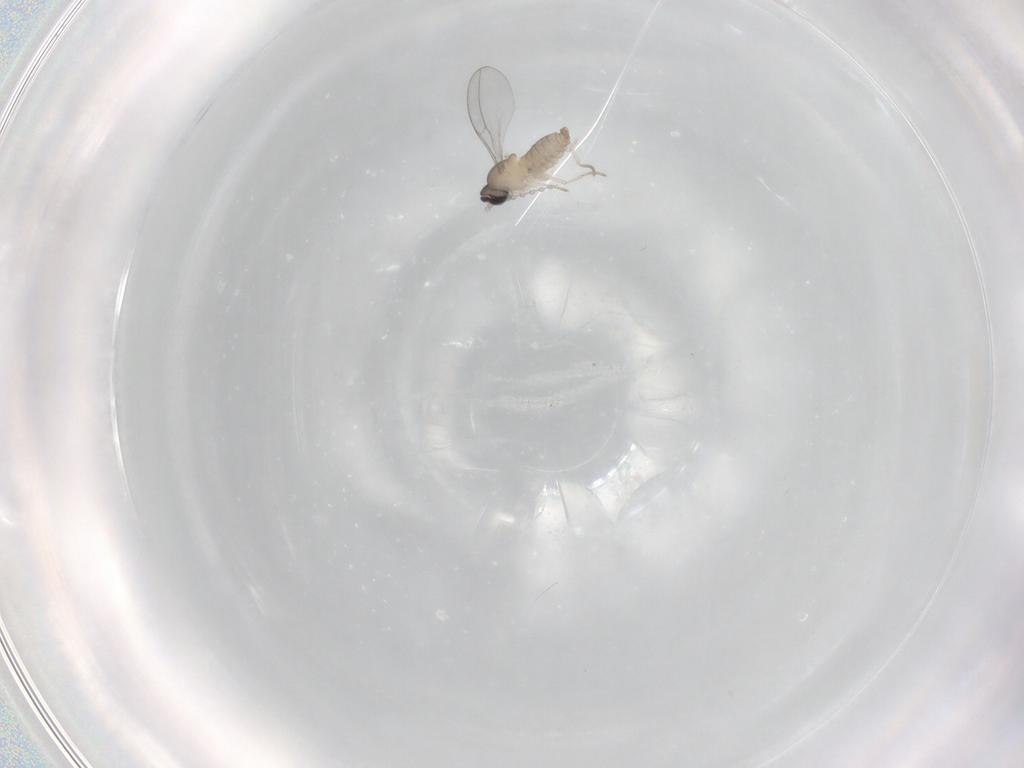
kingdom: Animalia
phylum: Arthropoda
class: Insecta
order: Diptera
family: Cecidomyiidae
